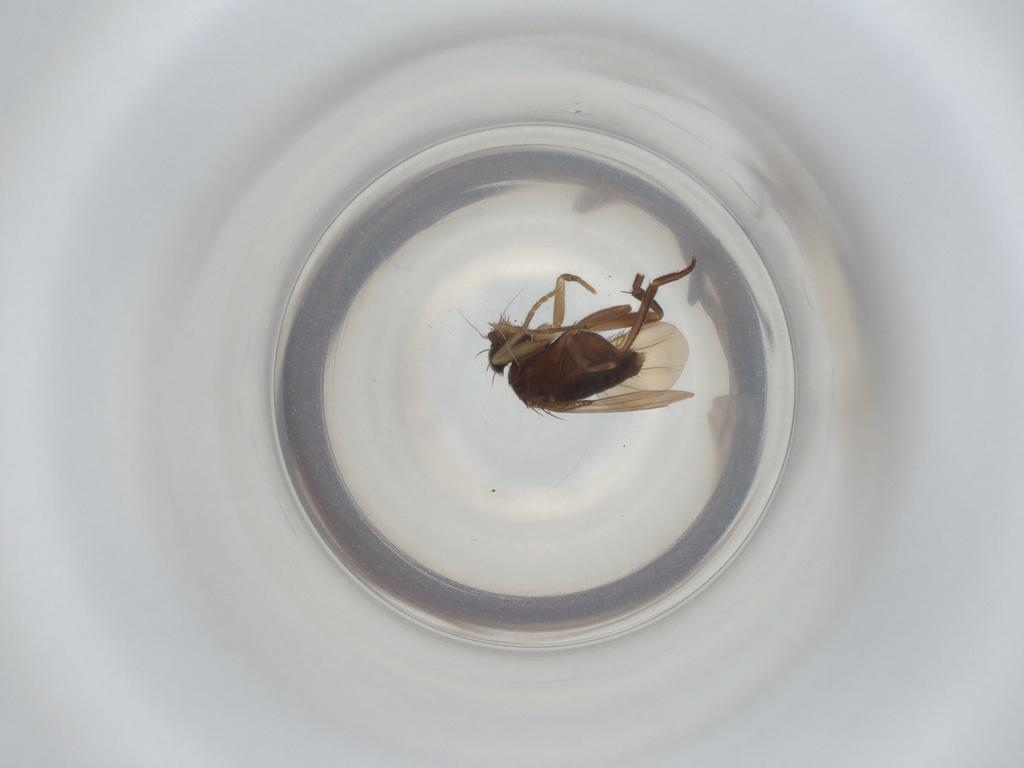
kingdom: Animalia
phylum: Arthropoda
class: Insecta
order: Diptera
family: Phoridae
